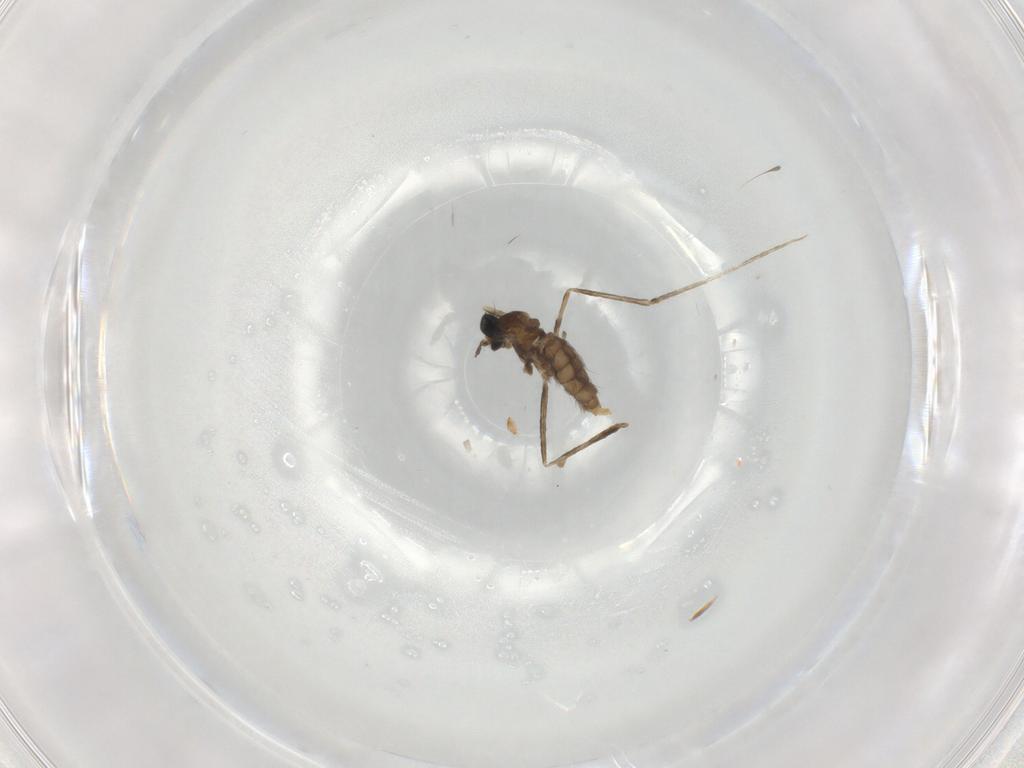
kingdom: Animalia
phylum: Arthropoda
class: Insecta
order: Diptera
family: Cecidomyiidae
